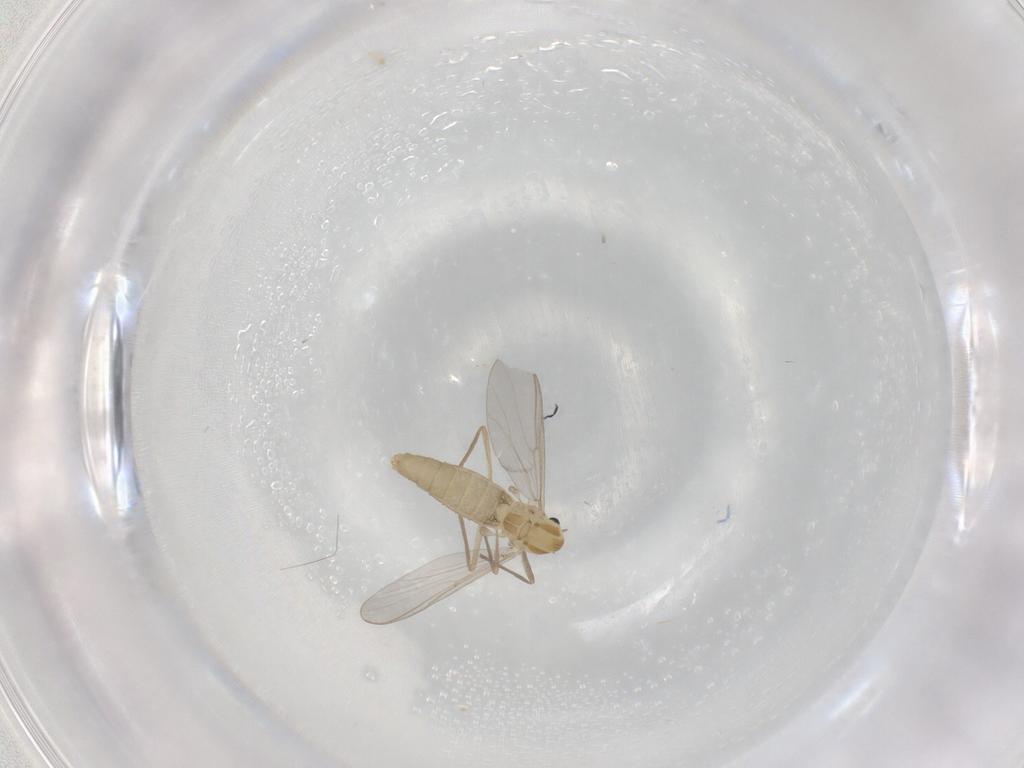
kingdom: Animalia
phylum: Arthropoda
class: Insecta
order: Diptera
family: Chironomidae
